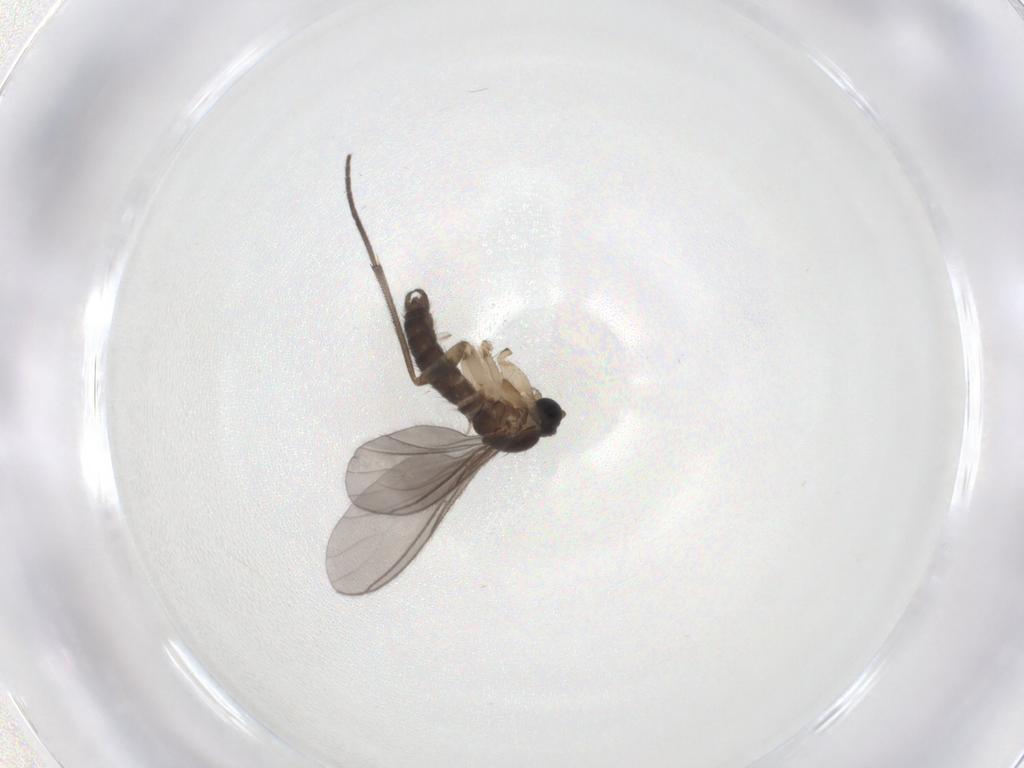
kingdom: Animalia
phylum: Arthropoda
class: Insecta
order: Diptera
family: Sciaridae
